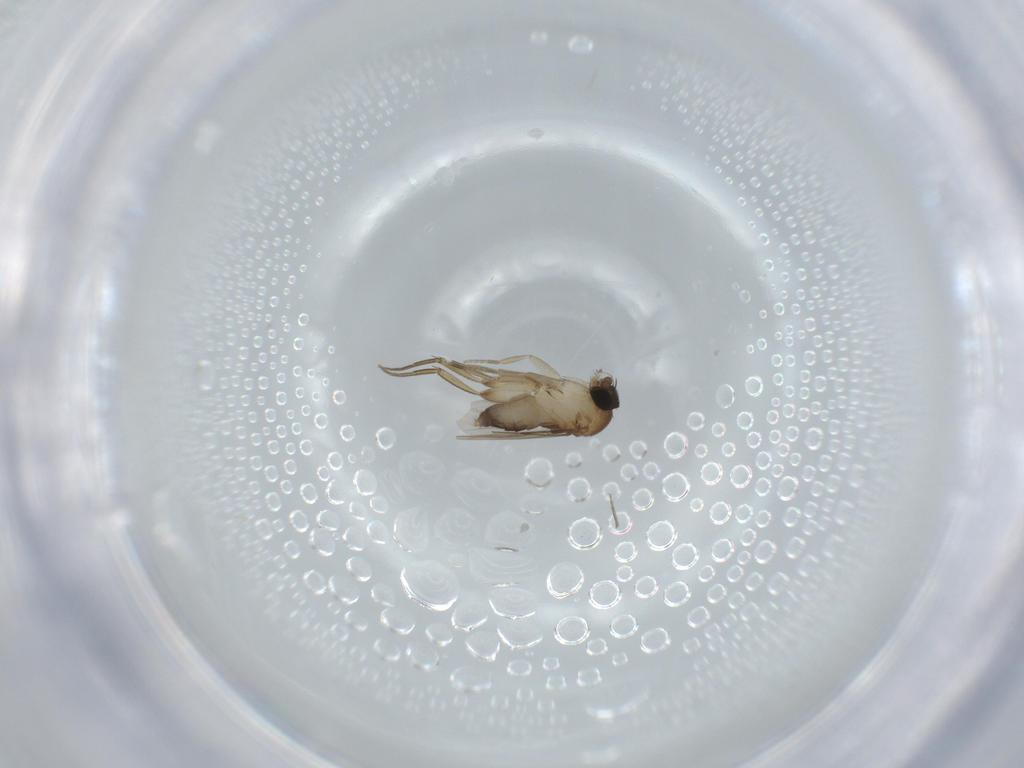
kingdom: Animalia
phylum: Arthropoda
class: Insecta
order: Diptera
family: Phoridae
